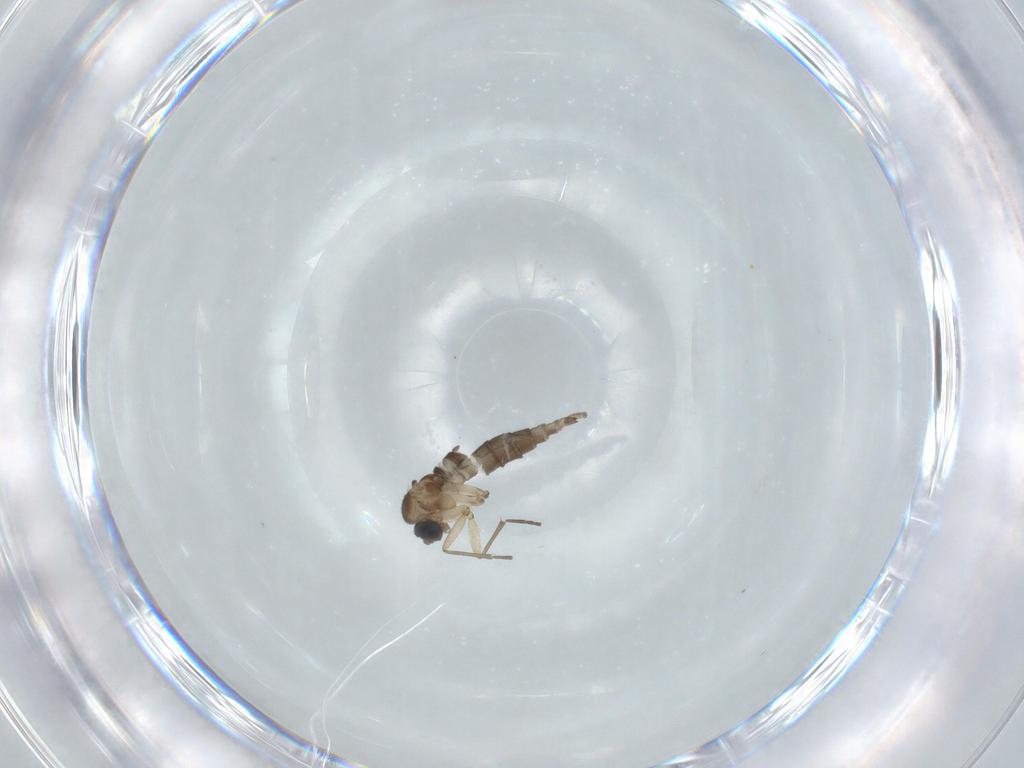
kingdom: Animalia
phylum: Arthropoda
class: Insecta
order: Diptera
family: Sciaridae
